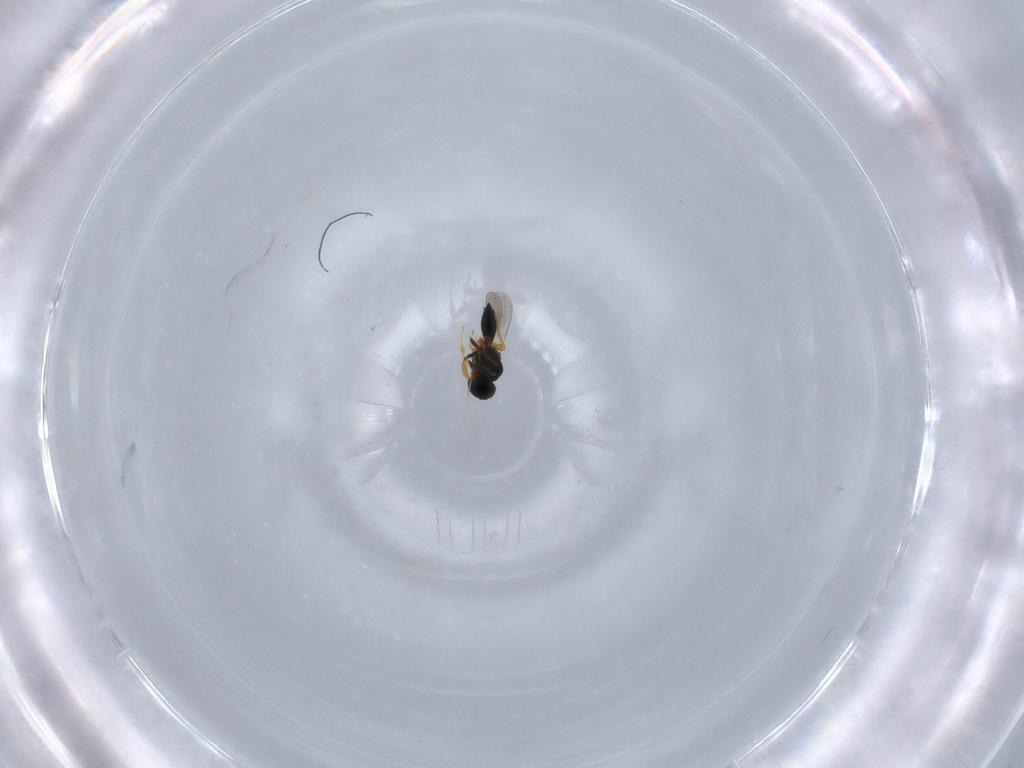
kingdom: Animalia
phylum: Arthropoda
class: Insecta
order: Hymenoptera
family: Platygastridae
